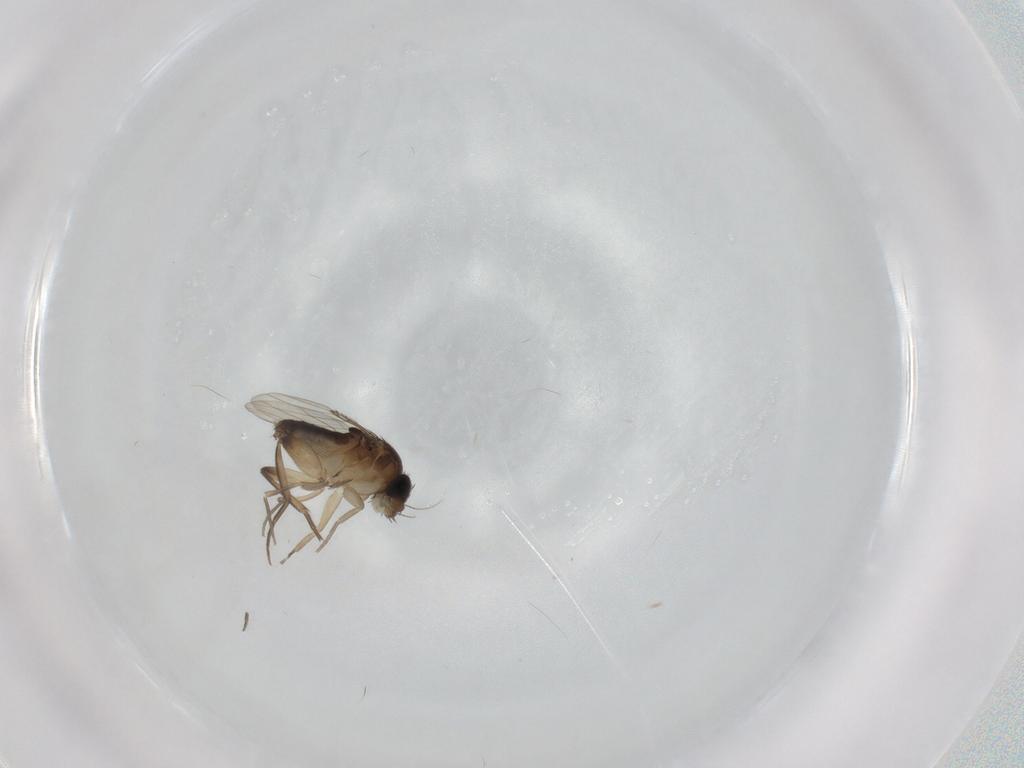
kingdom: Animalia
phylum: Arthropoda
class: Insecta
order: Diptera
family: Phoridae
